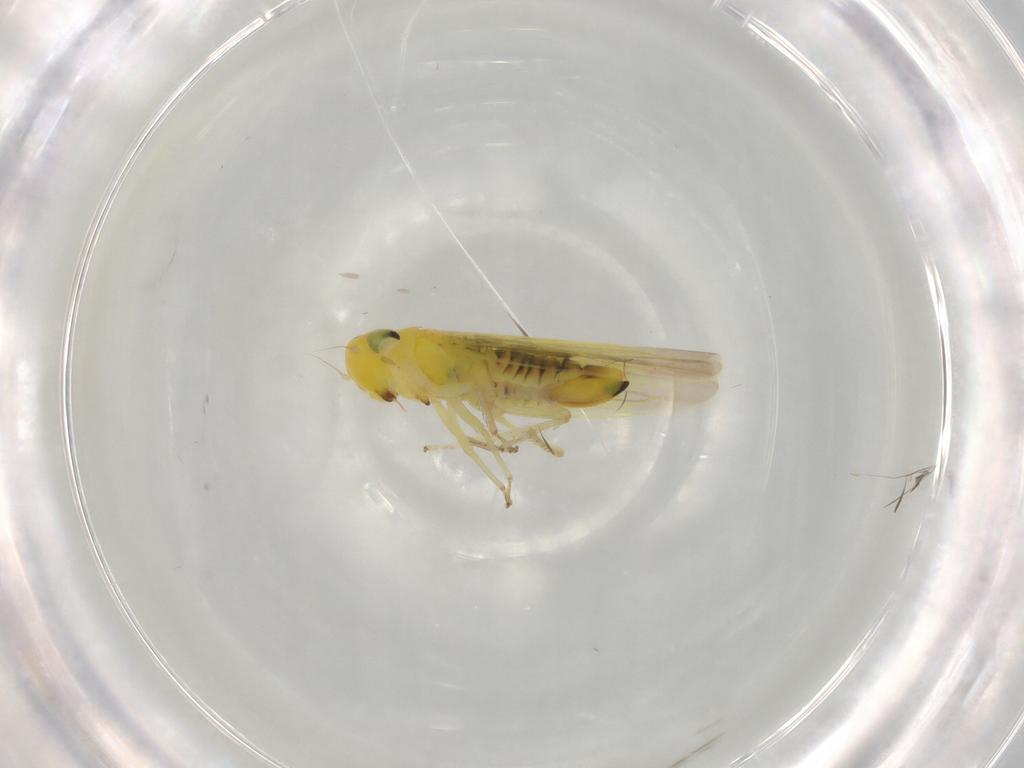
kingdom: Animalia
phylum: Arthropoda
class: Insecta
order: Hemiptera
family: Cicadellidae
